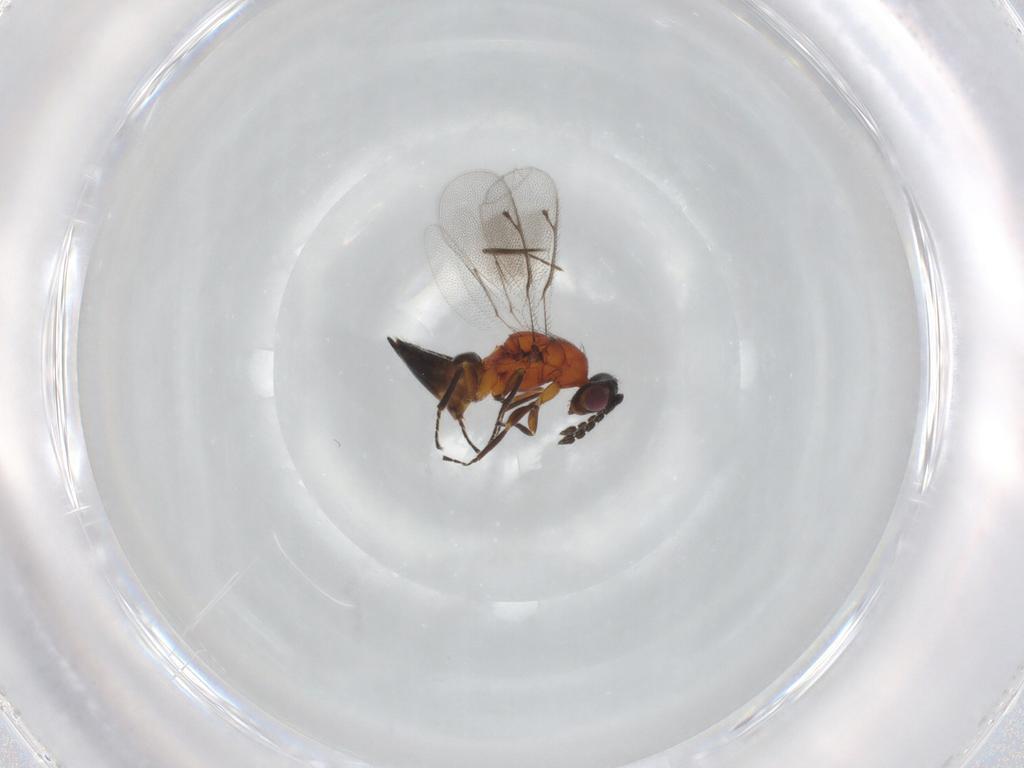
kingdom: Animalia
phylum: Arthropoda
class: Insecta
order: Hymenoptera
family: Eulophidae
